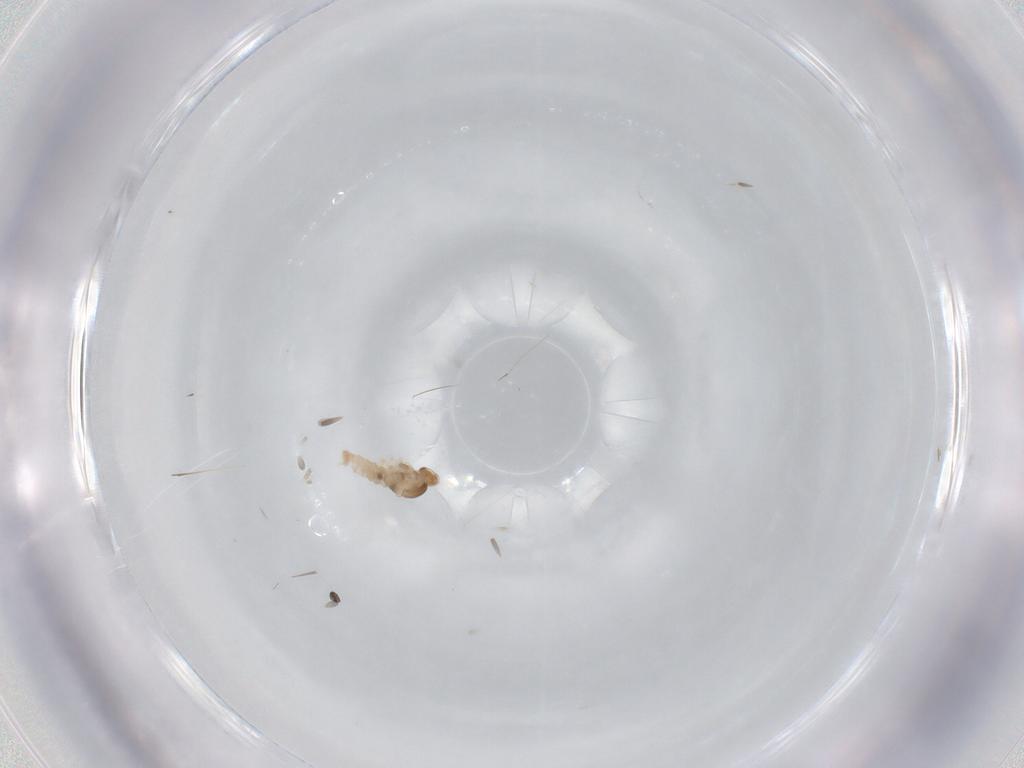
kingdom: Animalia
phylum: Arthropoda
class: Insecta
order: Diptera
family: Cecidomyiidae
